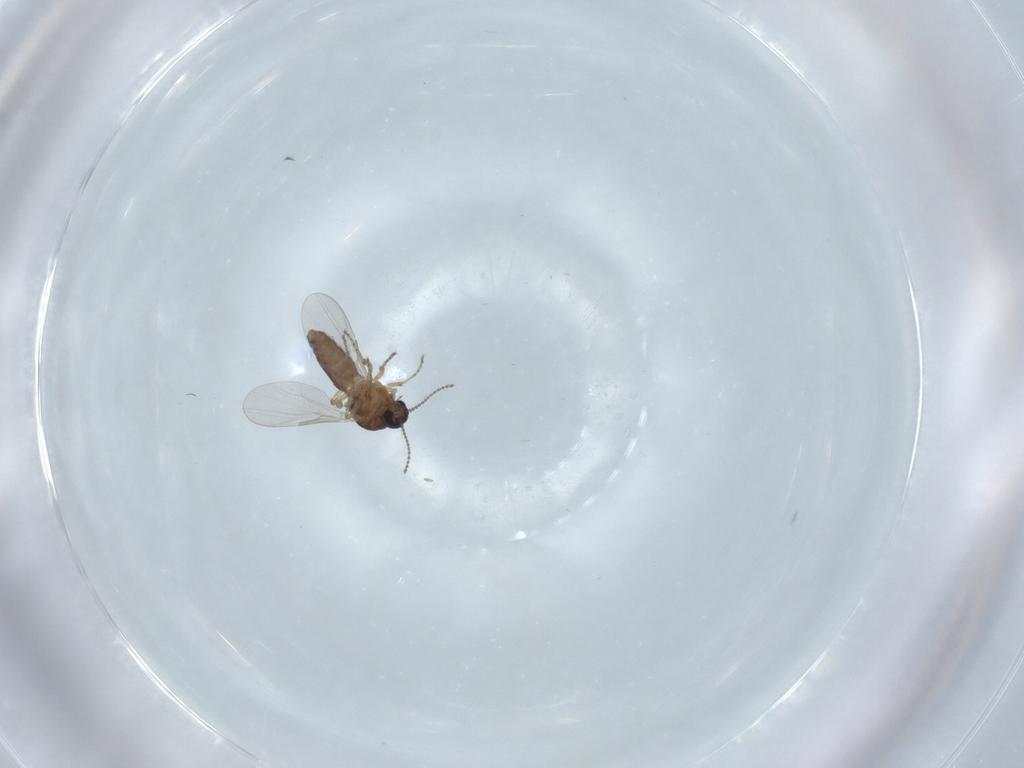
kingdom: Animalia
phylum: Arthropoda
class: Insecta
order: Diptera
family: Ceratopogonidae
